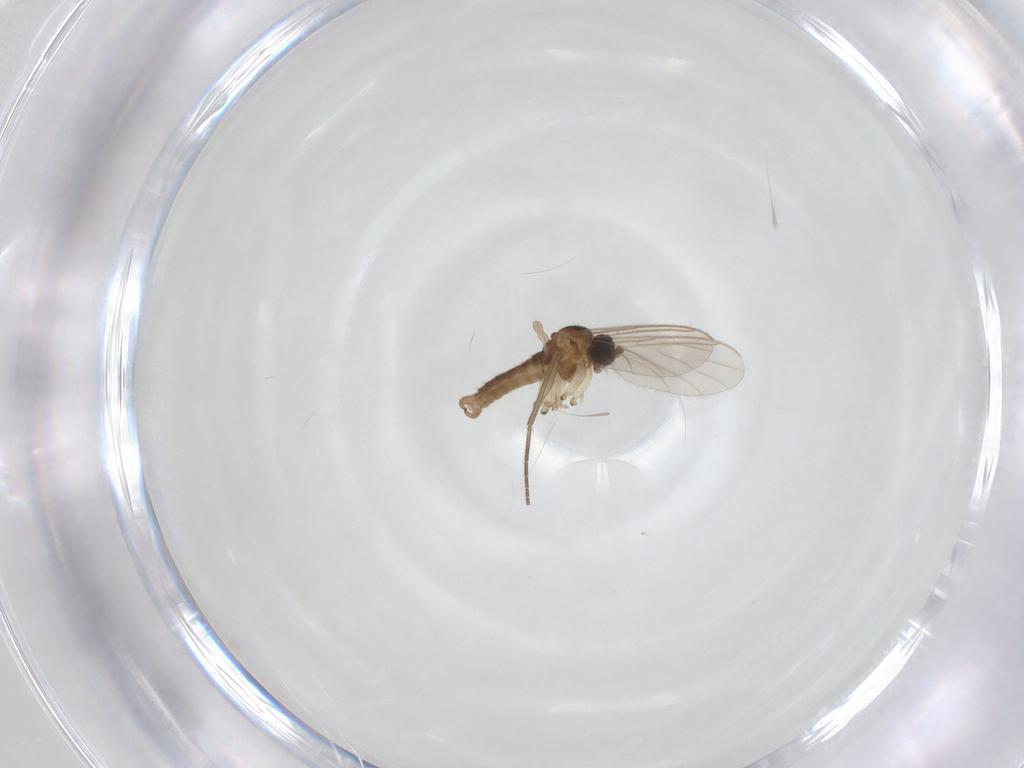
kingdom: Animalia
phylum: Arthropoda
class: Insecta
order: Diptera
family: Sciaridae
